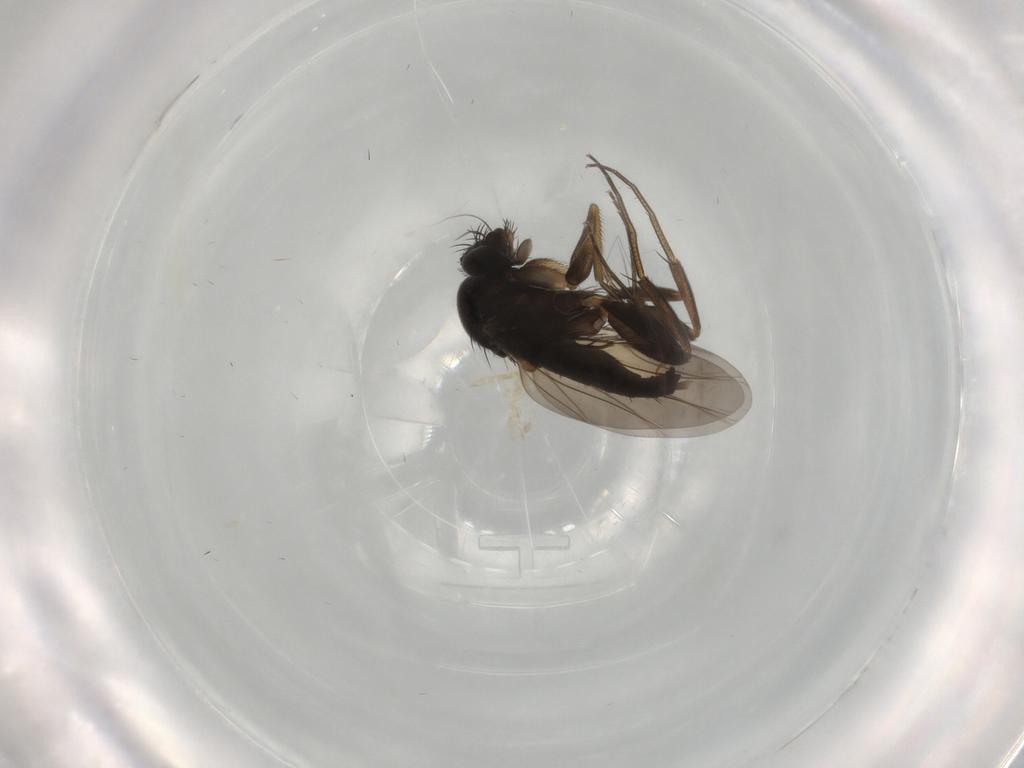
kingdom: Animalia
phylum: Arthropoda
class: Insecta
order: Diptera
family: Phoridae
